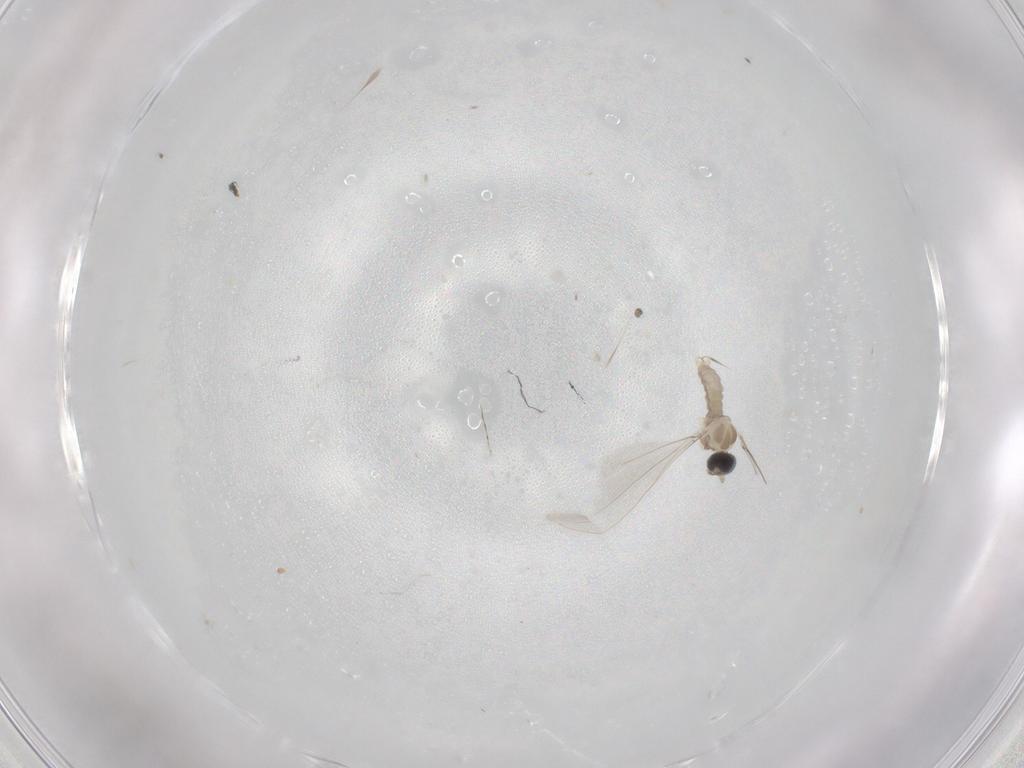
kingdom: Animalia
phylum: Arthropoda
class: Insecta
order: Diptera
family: Cecidomyiidae
